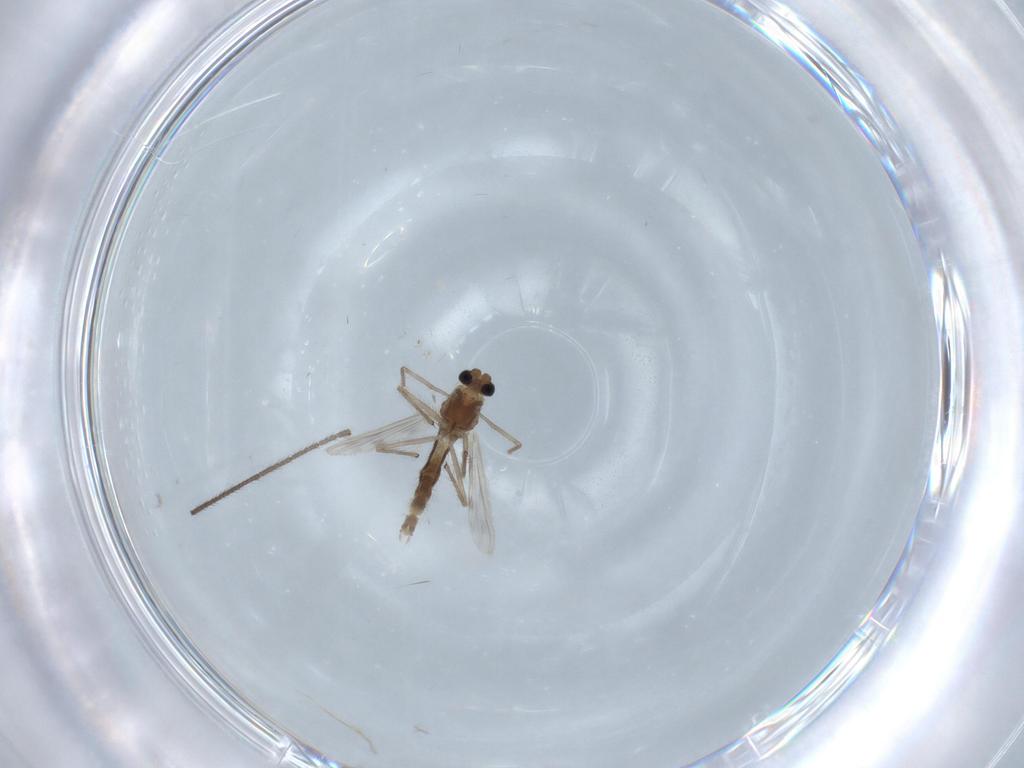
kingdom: Animalia
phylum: Arthropoda
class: Insecta
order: Diptera
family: Chironomidae
